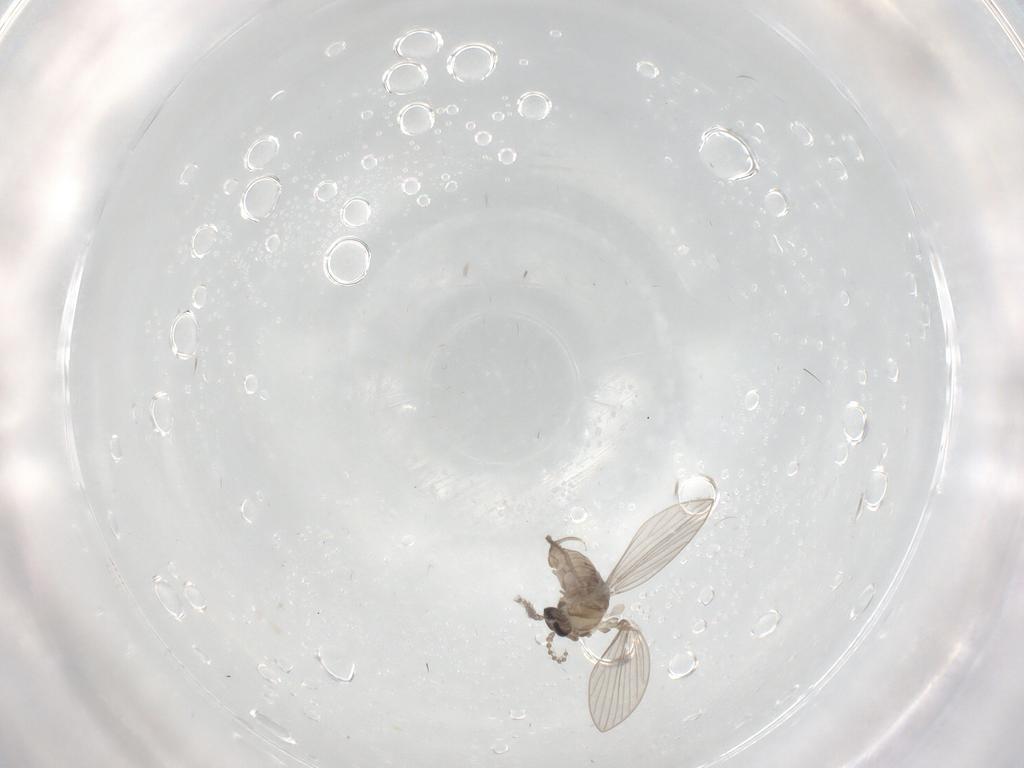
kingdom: Animalia
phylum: Arthropoda
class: Insecta
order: Diptera
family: Psychodidae
